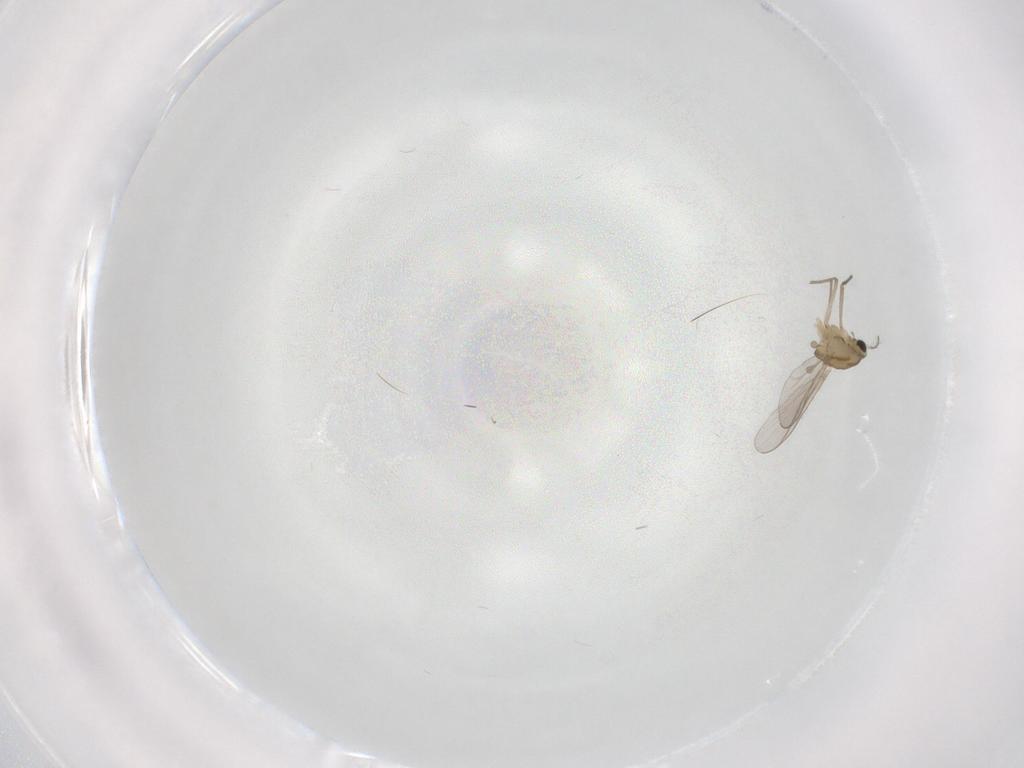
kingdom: Animalia
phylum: Arthropoda
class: Insecta
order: Diptera
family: Chironomidae
